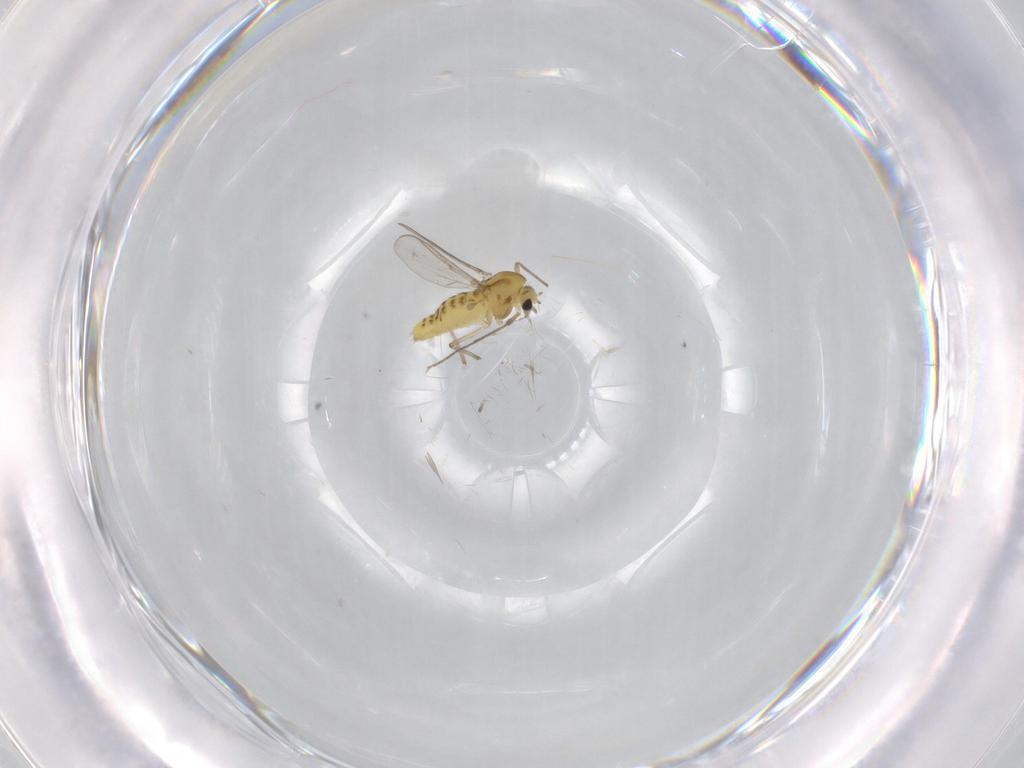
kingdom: Animalia
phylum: Arthropoda
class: Insecta
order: Diptera
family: Chironomidae
